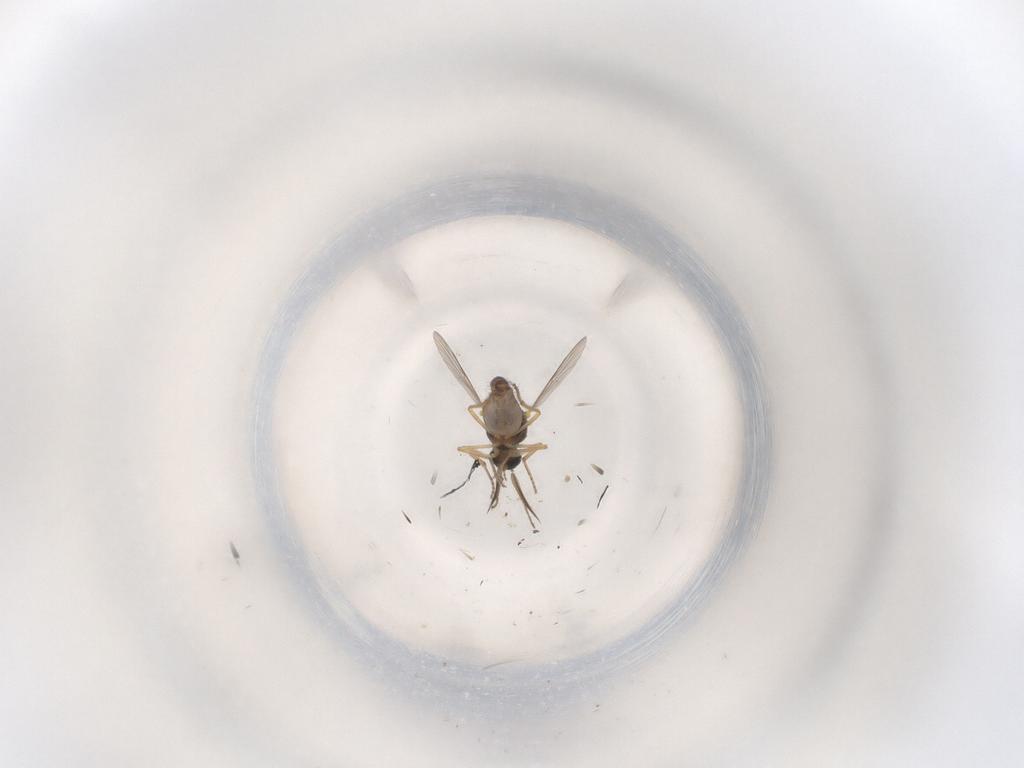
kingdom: Animalia
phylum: Arthropoda
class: Insecta
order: Diptera
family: Ceratopogonidae
